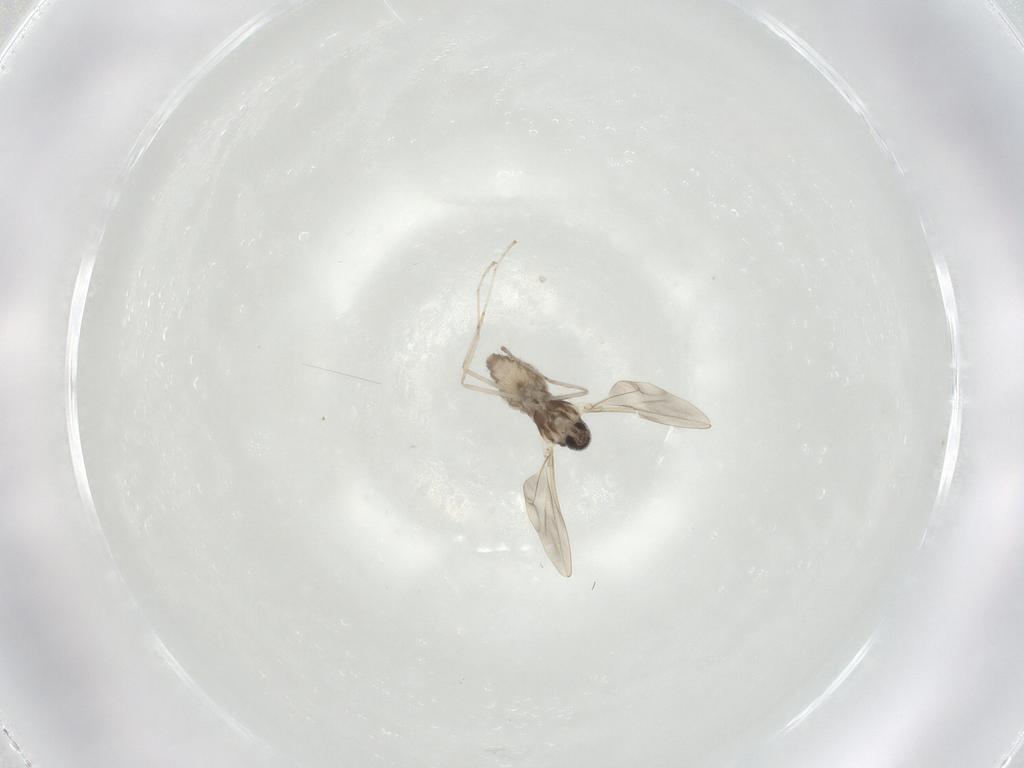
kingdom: Animalia
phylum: Arthropoda
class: Insecta
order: Diptera
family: Cecidomyiidae
